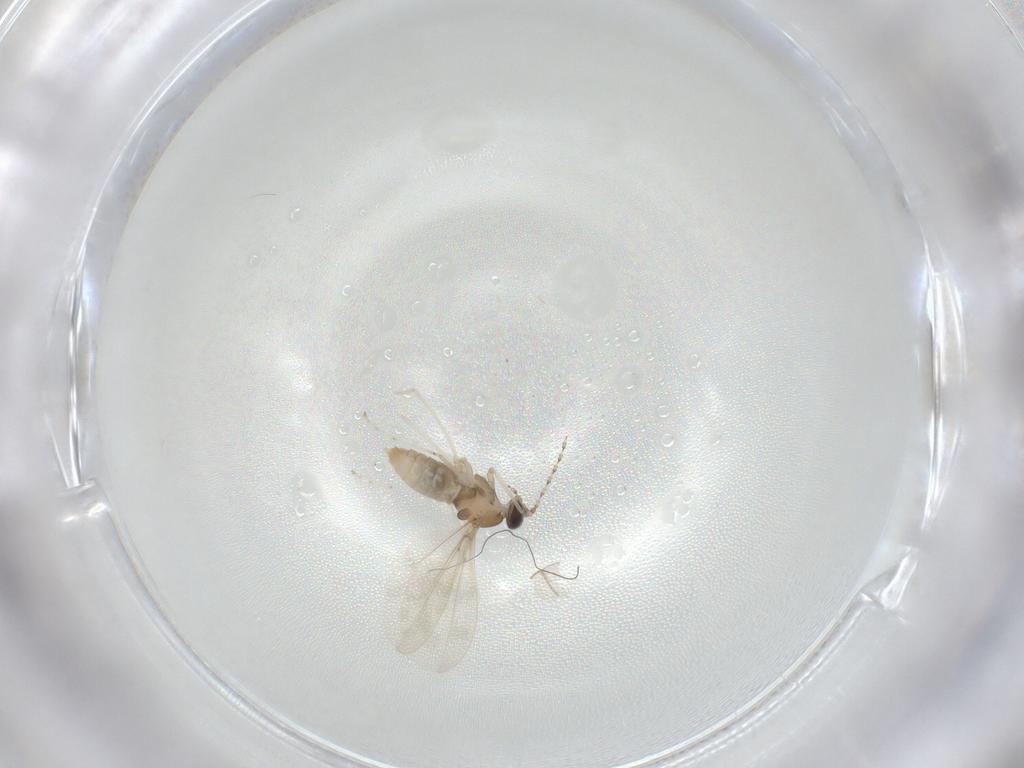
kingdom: Animalia
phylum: Arthropoda
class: Insecta
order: Diptera
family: Cecidomyiidae
